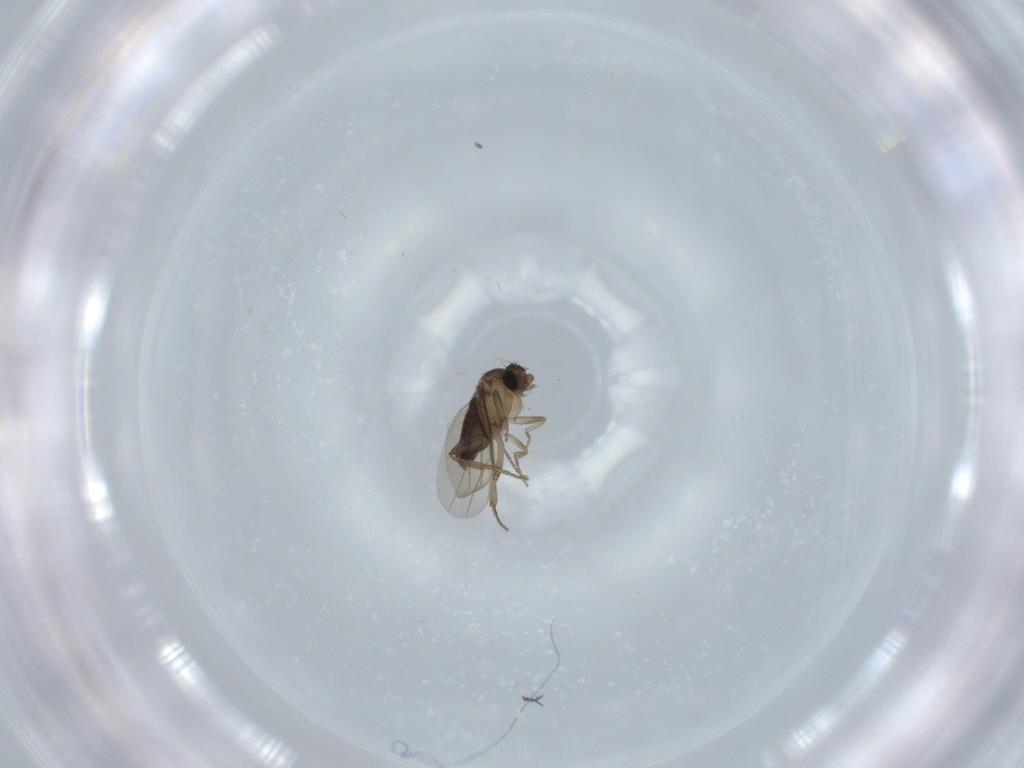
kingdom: Animalia
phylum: Arthropoda
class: Insecta
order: Diptera
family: Phoridae
